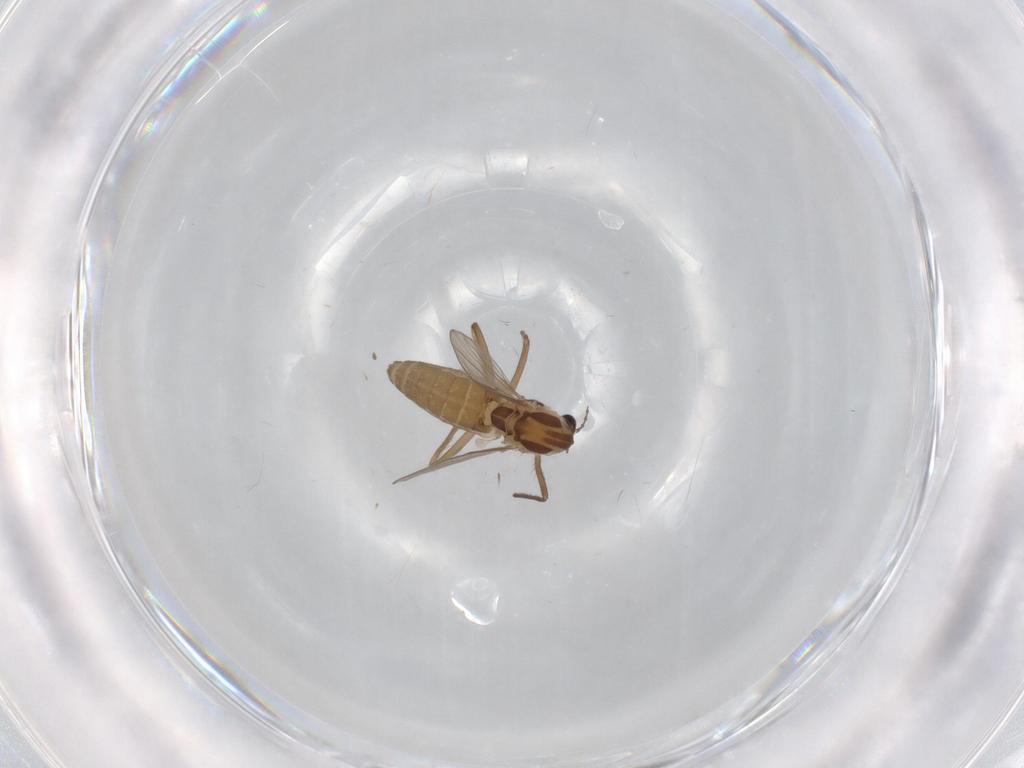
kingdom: Animalia
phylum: Arthropoda
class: Insecta
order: Diptera
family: Chironomidae
